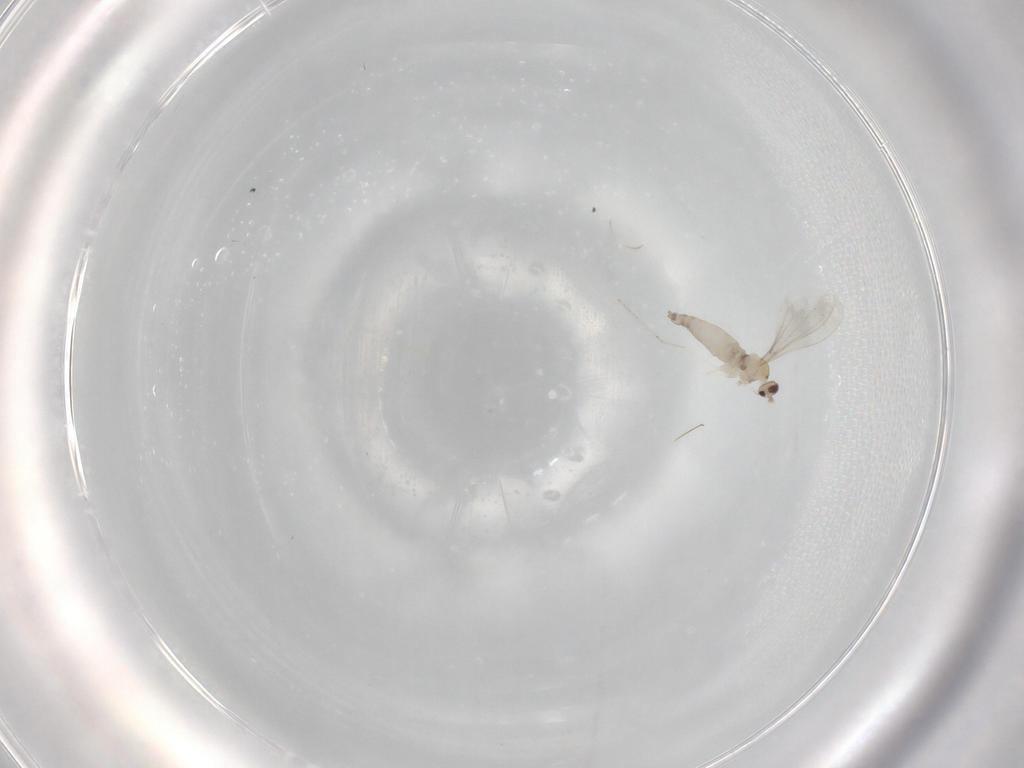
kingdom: Animalia
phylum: Arthropoda
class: Insecta
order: Diptera
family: Cecidomyiidae
